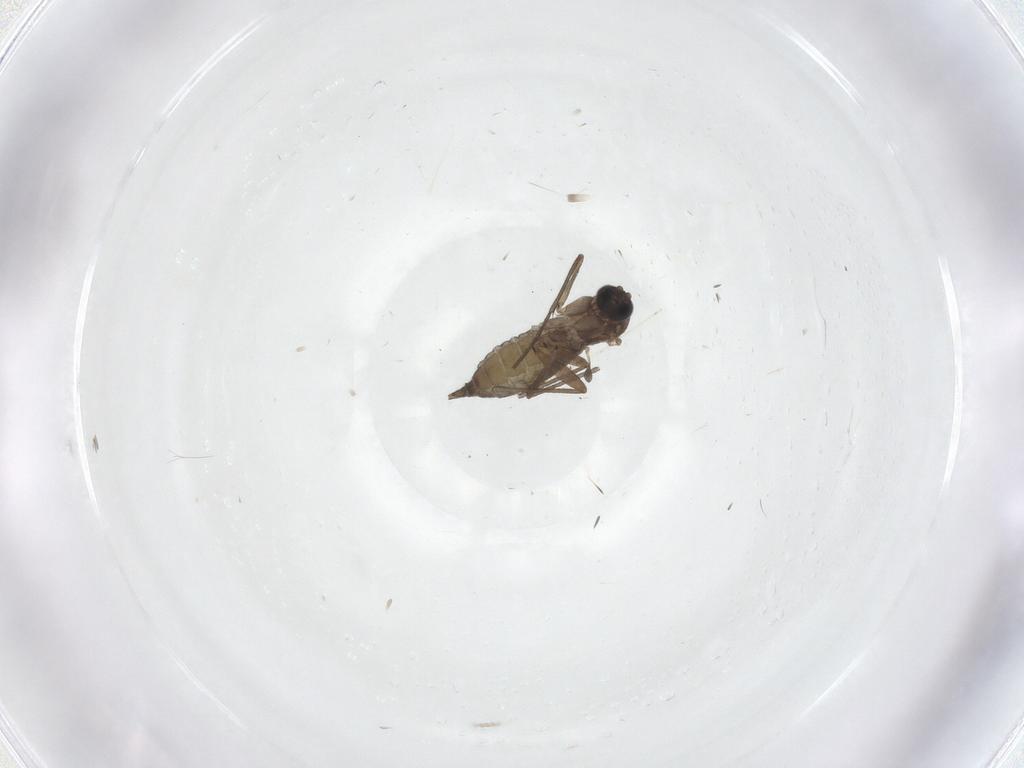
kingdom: Animalia
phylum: Arthropoda
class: Insecta
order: Diptera
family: Sciaridae
